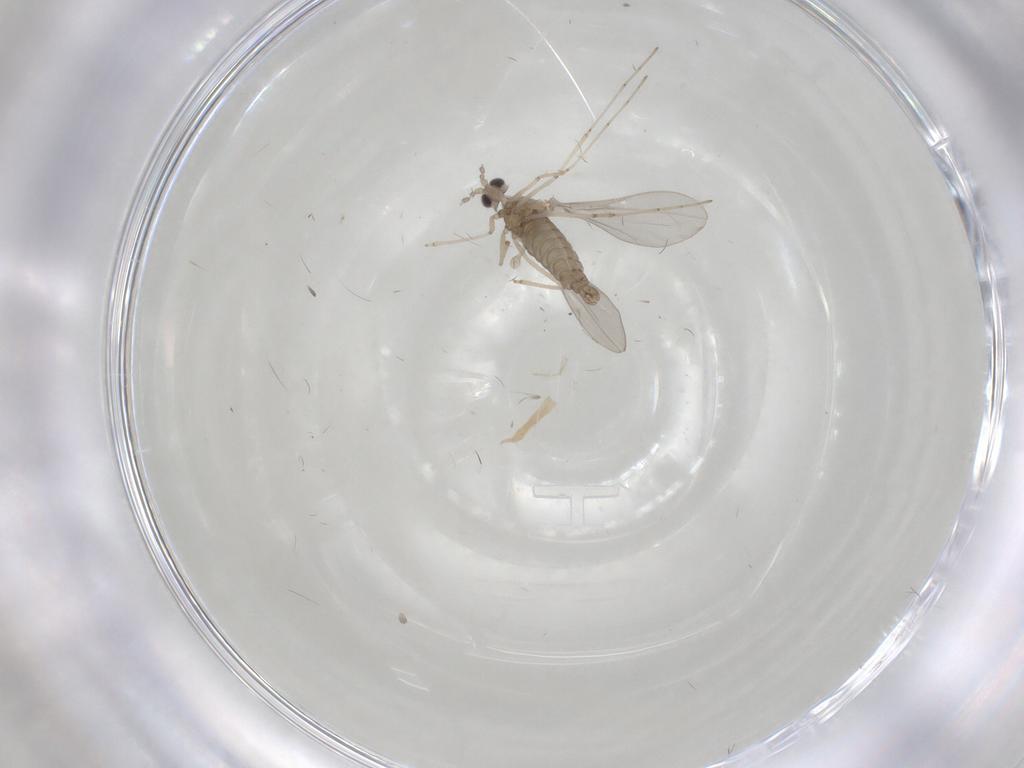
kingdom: Animalia
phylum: Arthropoda
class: Insecta
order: Diptera
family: Cecidomyiidae
